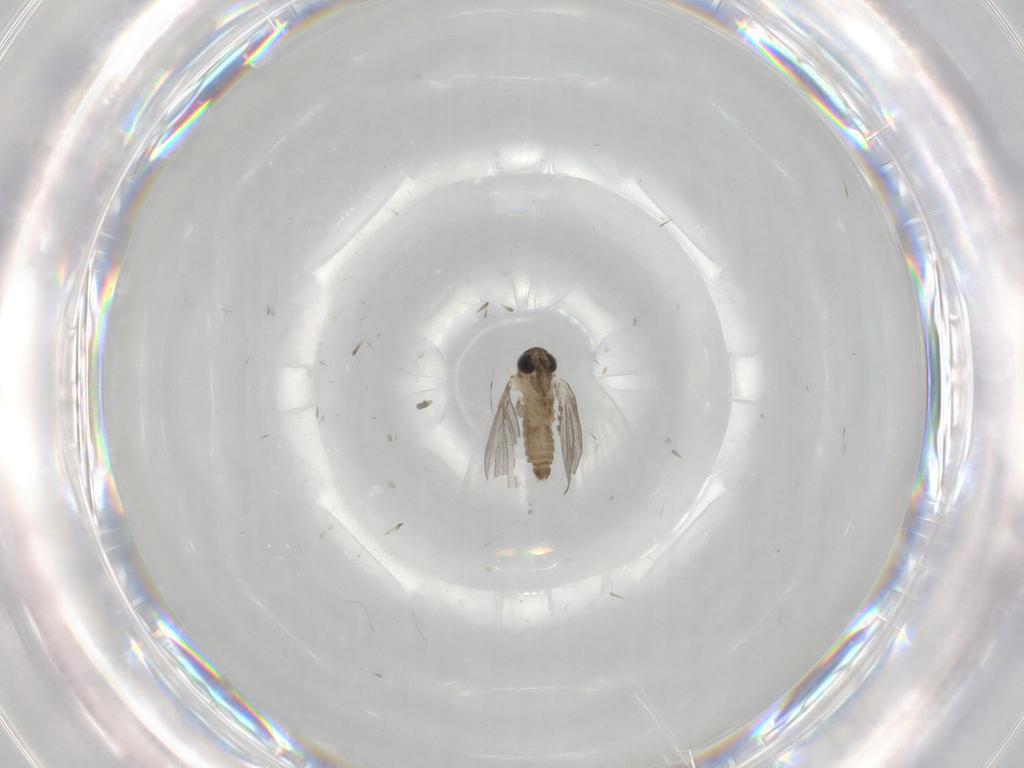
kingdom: Animalia
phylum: Arthropoda
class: Insecta
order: Diptera
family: Psychodidae
